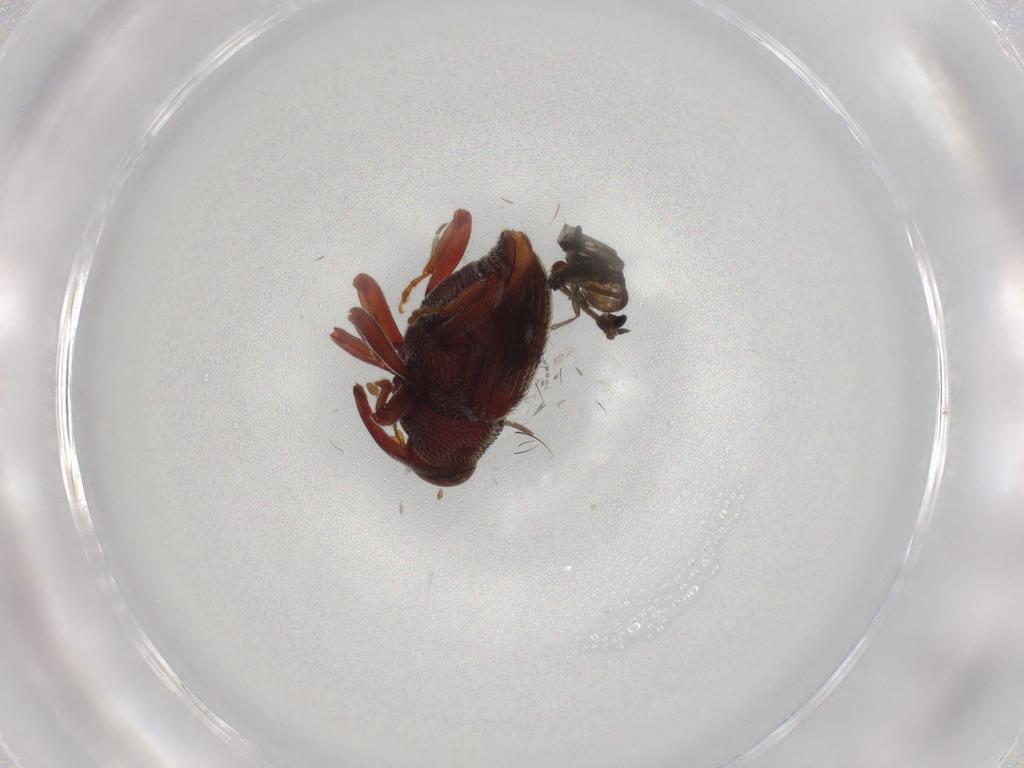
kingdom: Animalia
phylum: Arthropoda
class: Insecta
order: Coleoptera
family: Curculionidae
